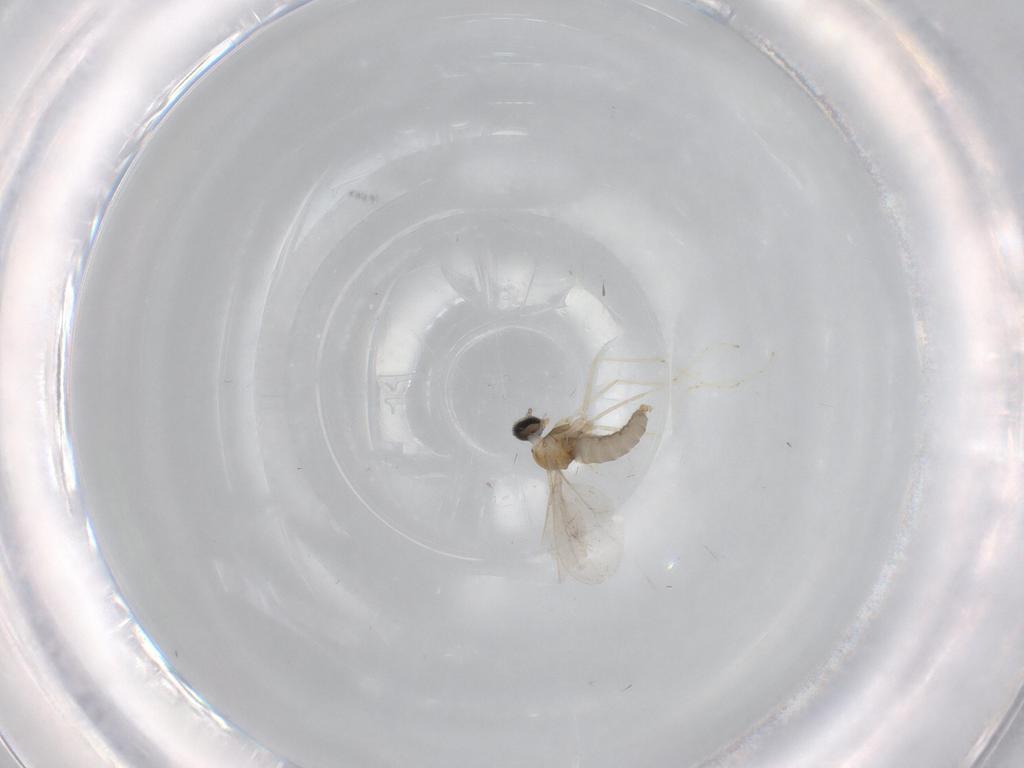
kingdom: Animalia
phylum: Arthropoda
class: Insecta
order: Diptera
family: Cecidomyiidae
